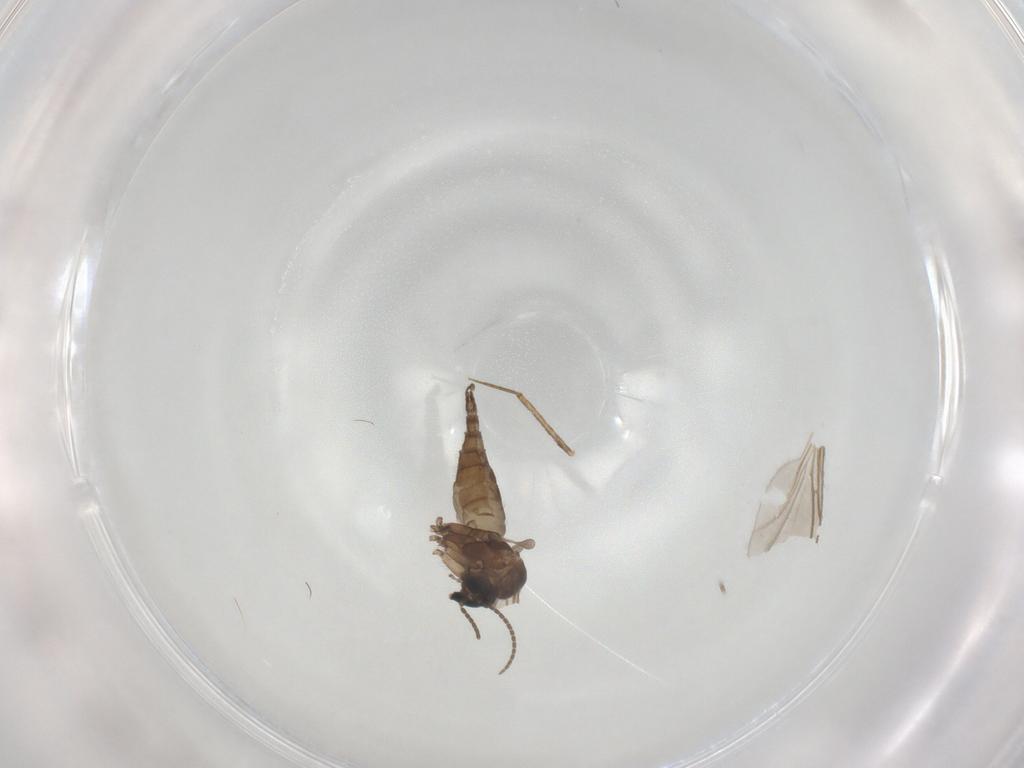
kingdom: Animalia
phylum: Arthropoda
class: Insecta
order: Diptera
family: Sciaridae
